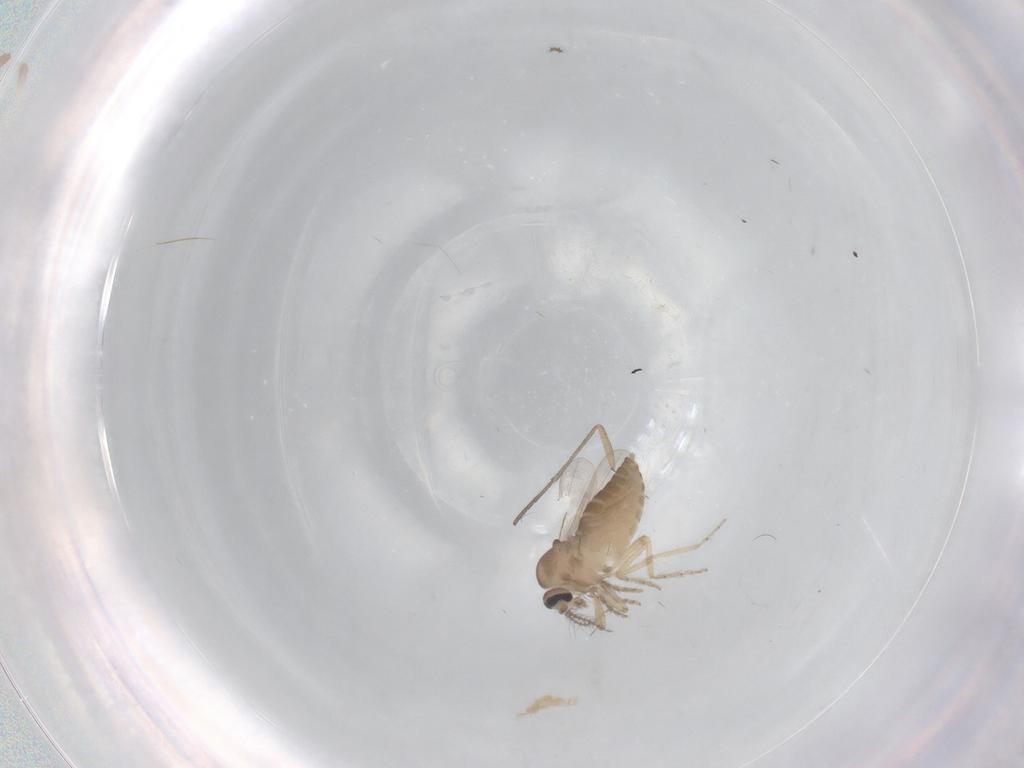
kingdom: Animalia
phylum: Arthropoda
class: Insecta
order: Diptera
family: Ceratopogonidae
